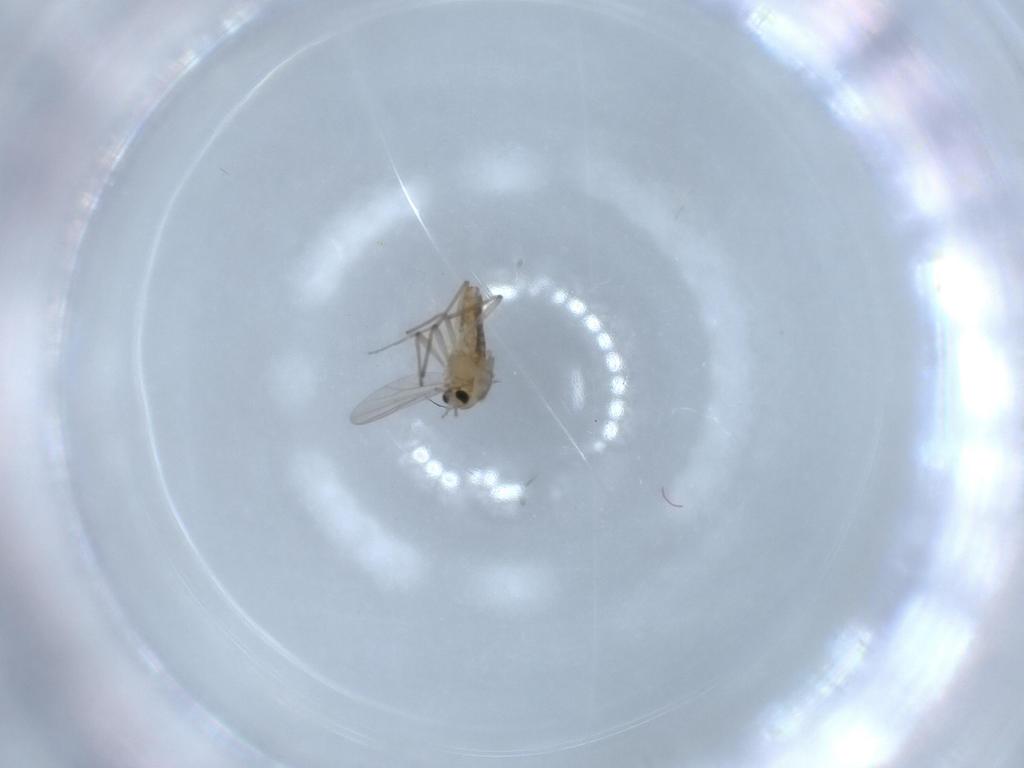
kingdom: Animalia
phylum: Arthropoda
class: Insecta
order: Diptera
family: Chironomidae
